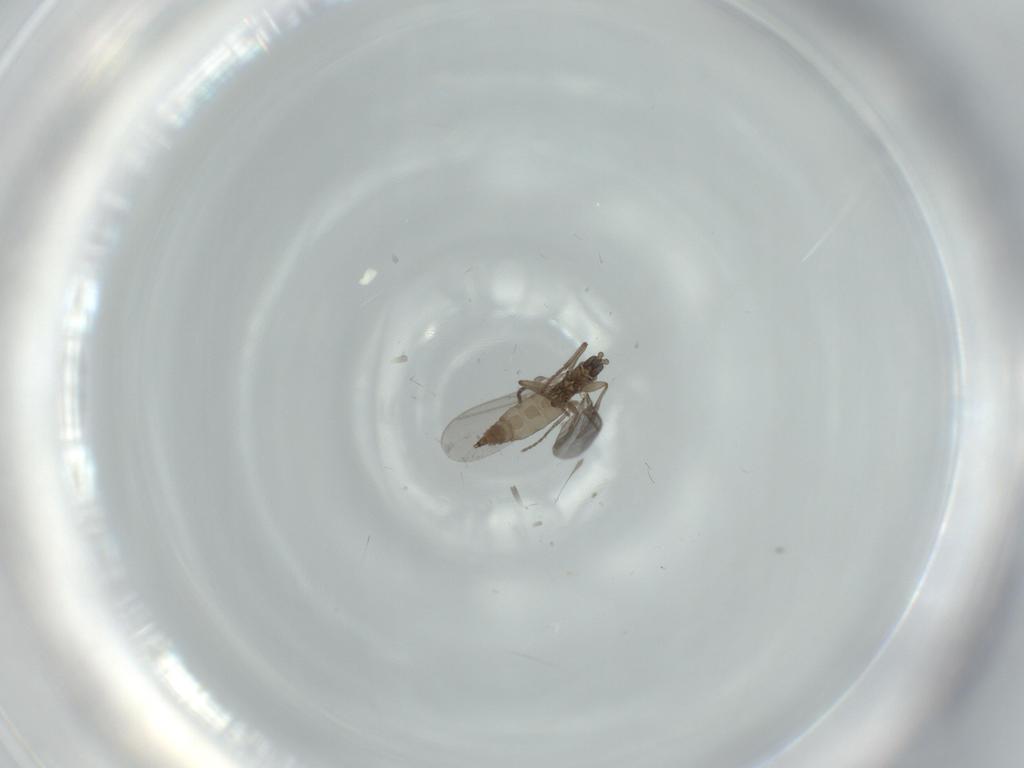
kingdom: Animalia
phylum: Arthropoda
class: Insecta
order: Diptera
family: Sciaridae
